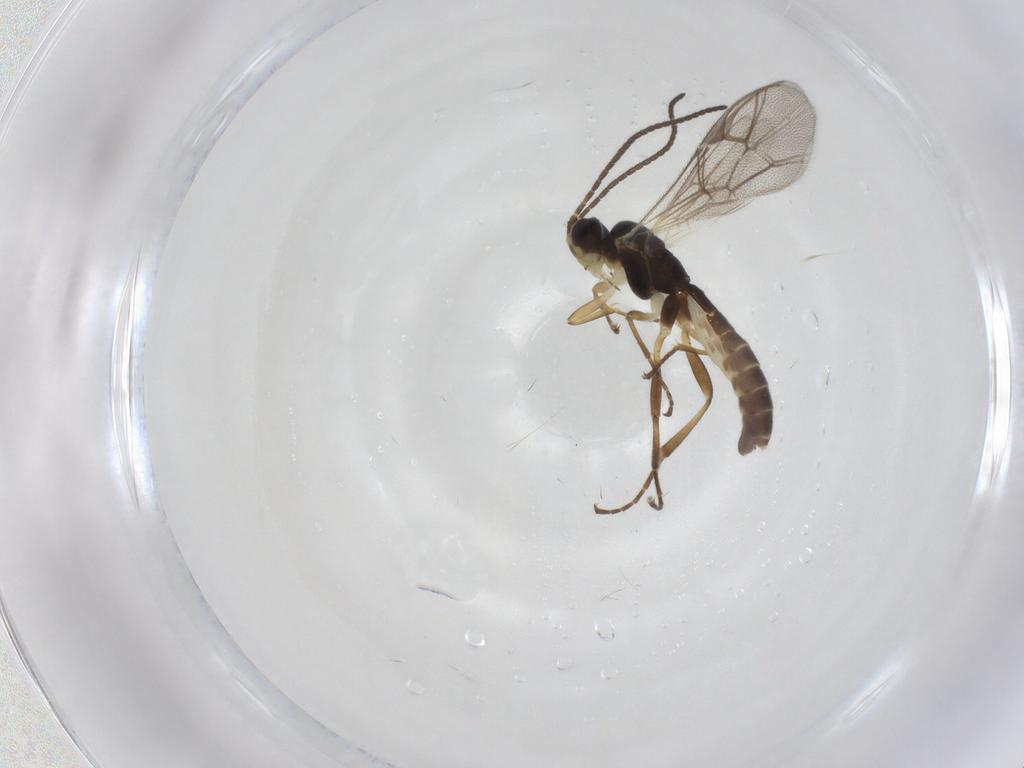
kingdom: Animalia
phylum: Arthropoda
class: Insecta
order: Hymenoptera
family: Ichneumonidae
